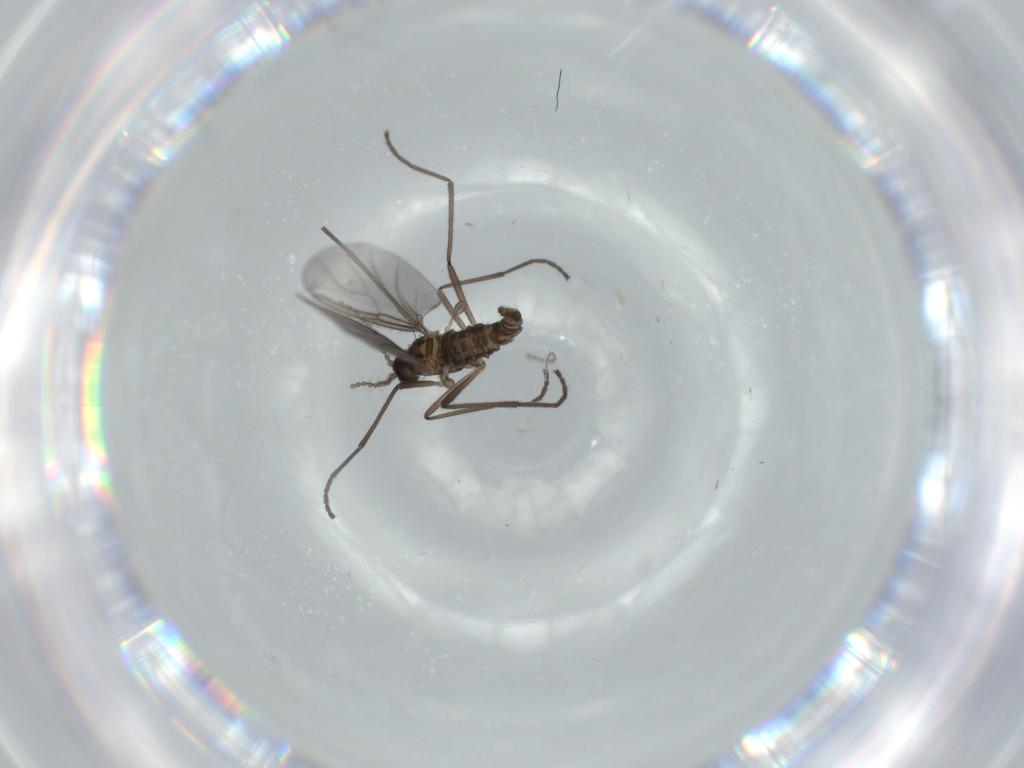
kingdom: Animalia
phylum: Arthropoda
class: Insecta
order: Diptera
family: Cecidomyiidae
